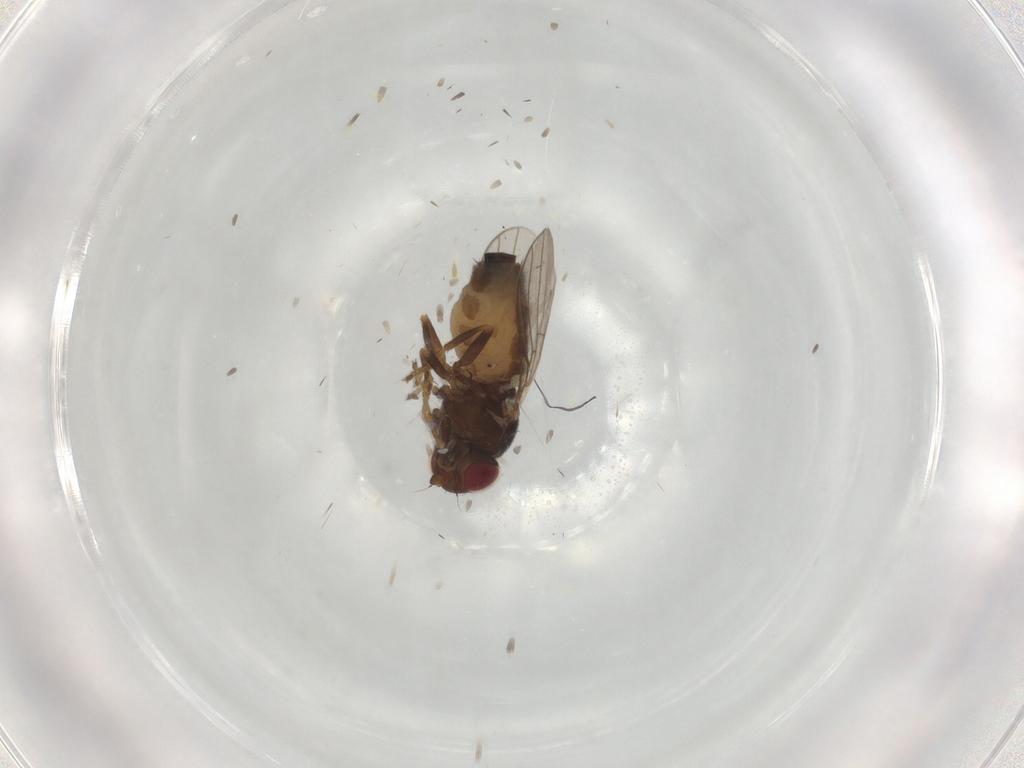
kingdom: Animalia
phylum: Arthropoda
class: Insecta
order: Diptera
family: Chloropidae
